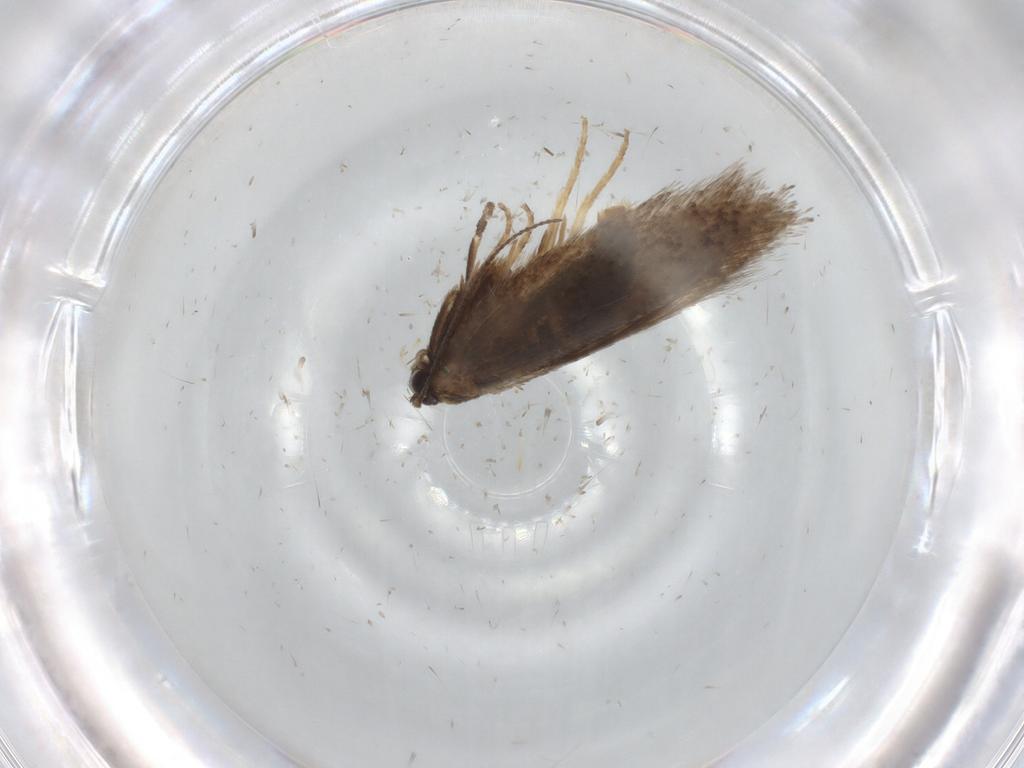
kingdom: Animalia
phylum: Arthropoda
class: Insecta
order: Lepidoptera
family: Nepticulidae
